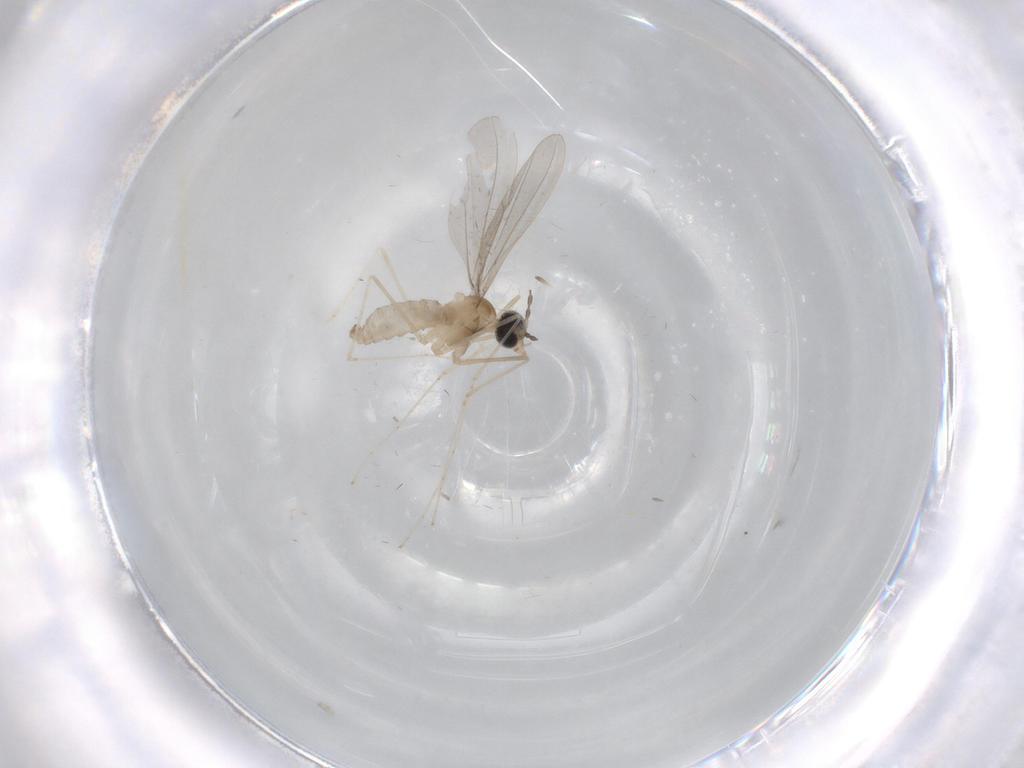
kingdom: Animalia
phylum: Arthropoda
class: Insecta
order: Diptera
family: Cecidomyiidae
